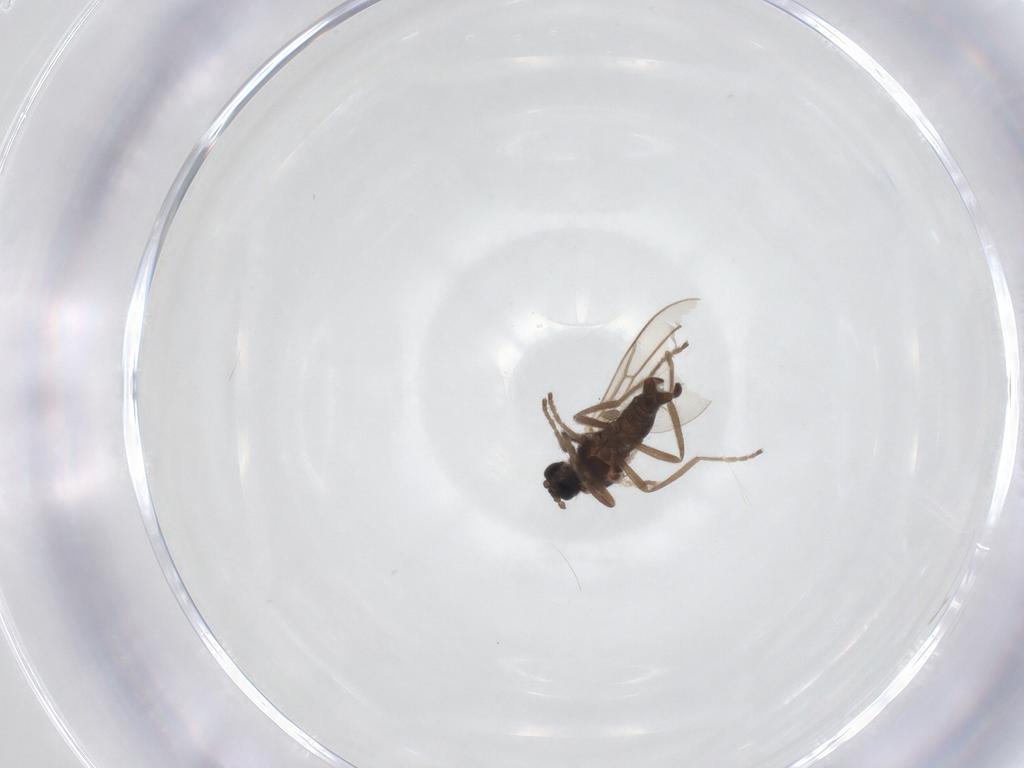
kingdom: Animalia
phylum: Arthropoda
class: Insecta
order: Diptera
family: Cecidomyiidae
